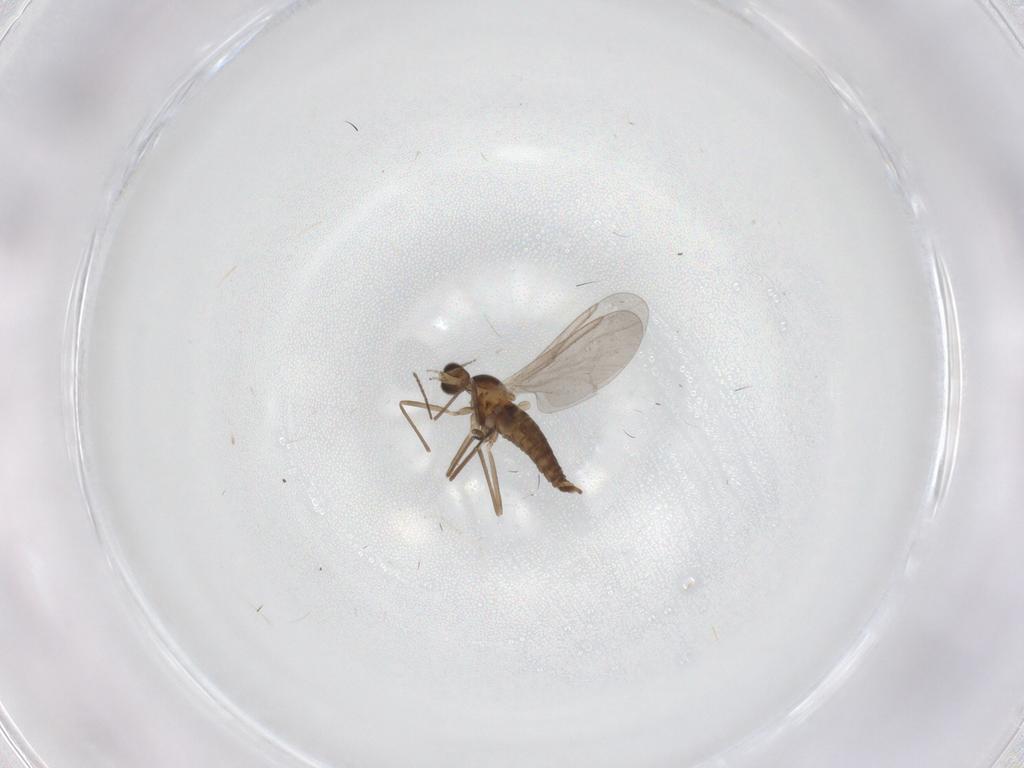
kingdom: Animalia
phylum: Arthropoda
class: Insecta
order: Diptera
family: Cecidomyiidae
